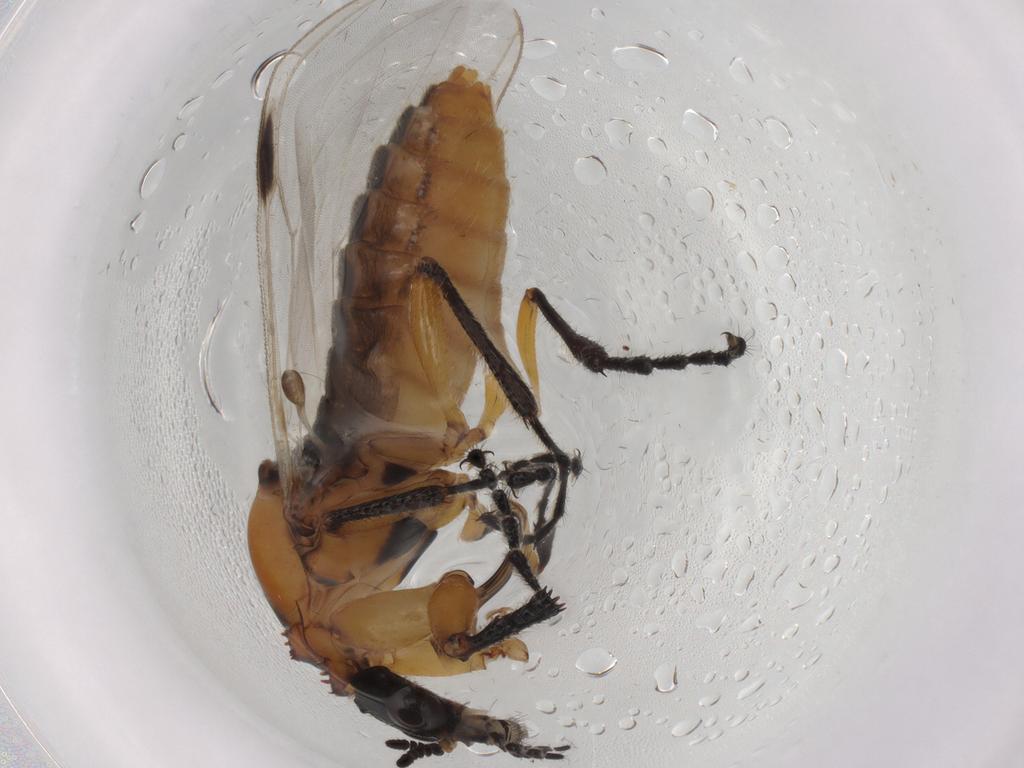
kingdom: Animalia
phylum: Arthropoda
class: Insecta
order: Diptera
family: Bibionidae
